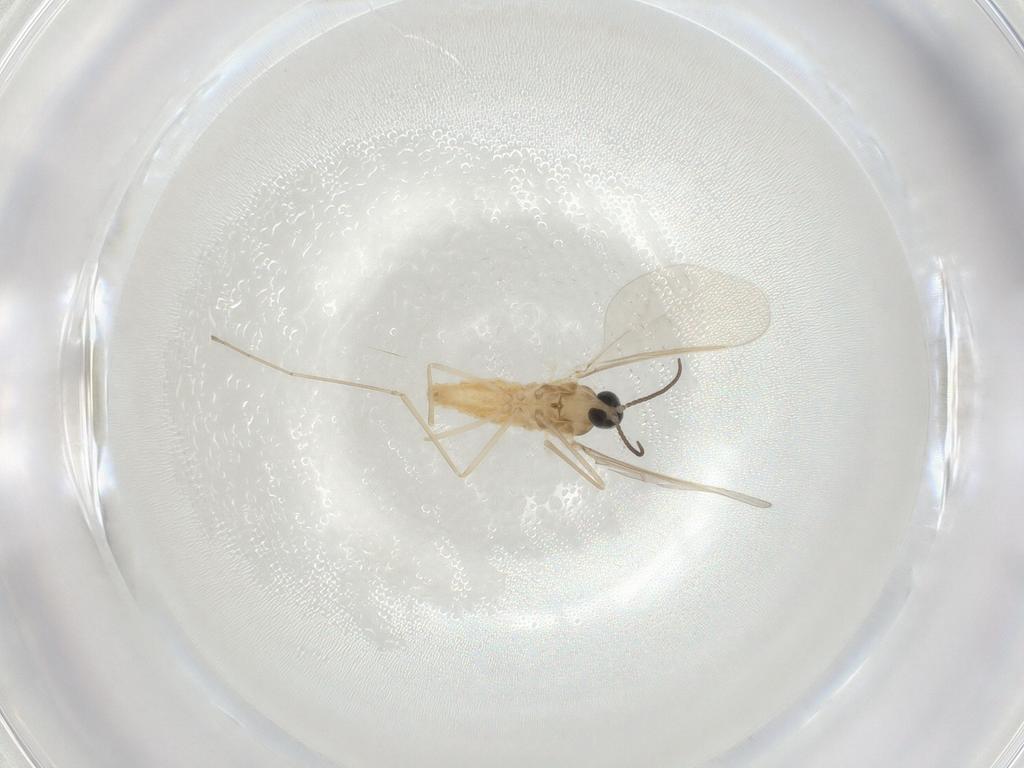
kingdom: Animalia
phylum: Arthropoda
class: Insecta
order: Diptera
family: Cecidomyiidae
